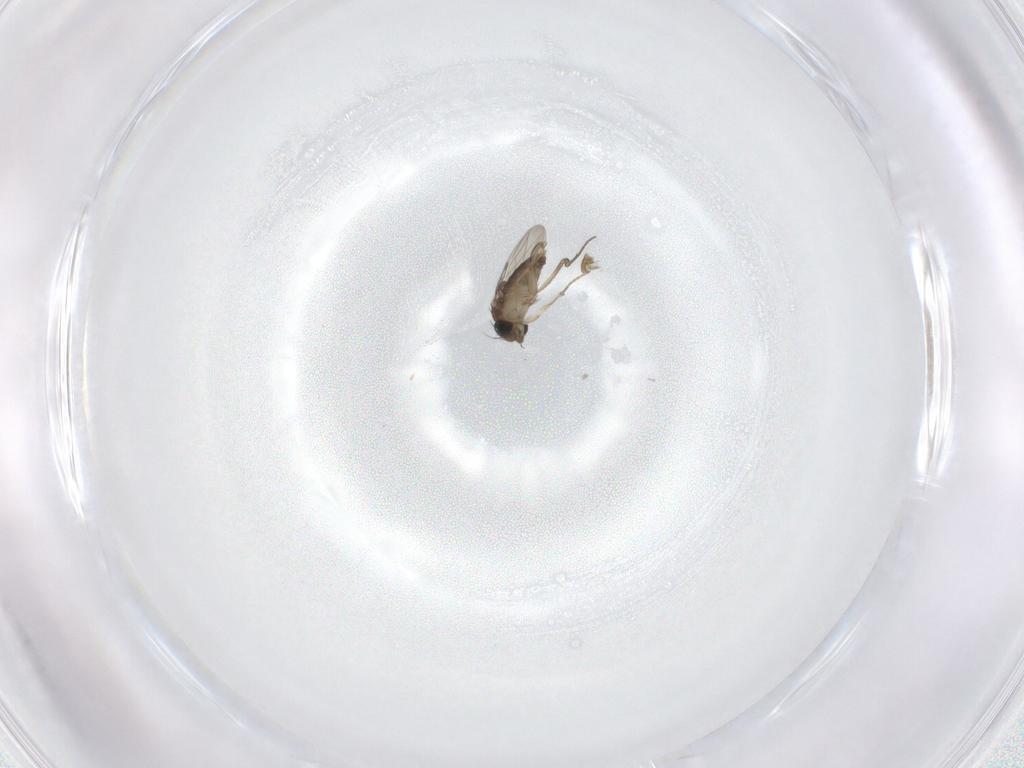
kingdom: Animalia
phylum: Arthropoda
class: Insecta
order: Diptera
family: Phoridae
